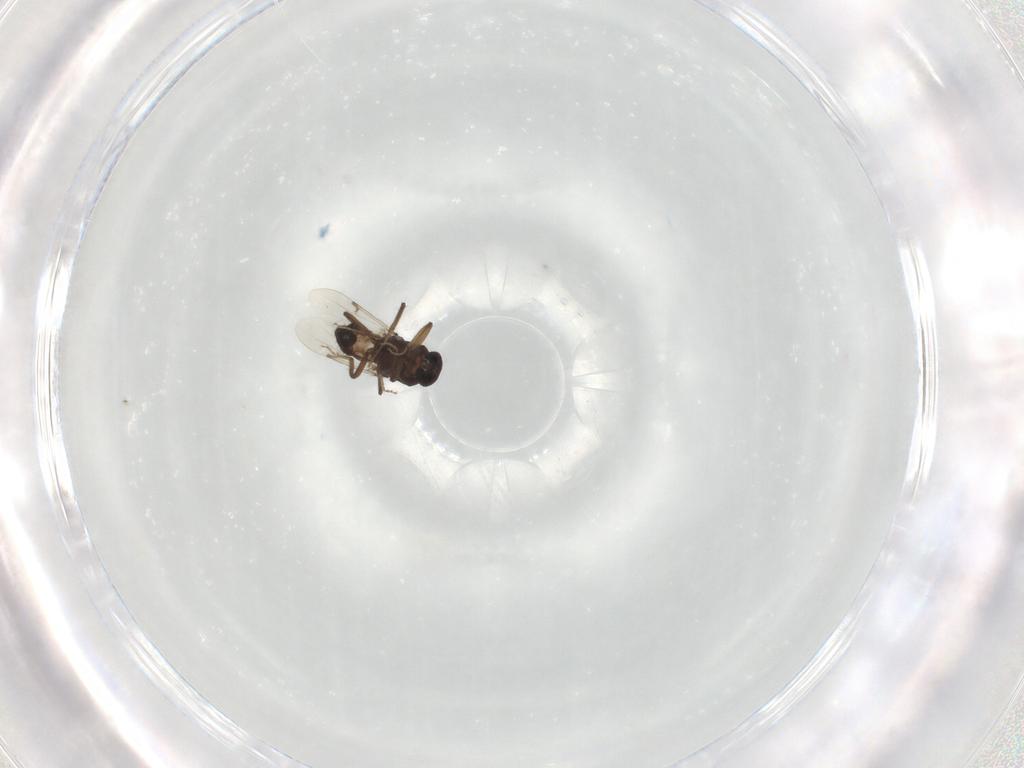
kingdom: Animalia
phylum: Arthropoda
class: Insecta
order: Diptera
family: Ceratopogonidae
